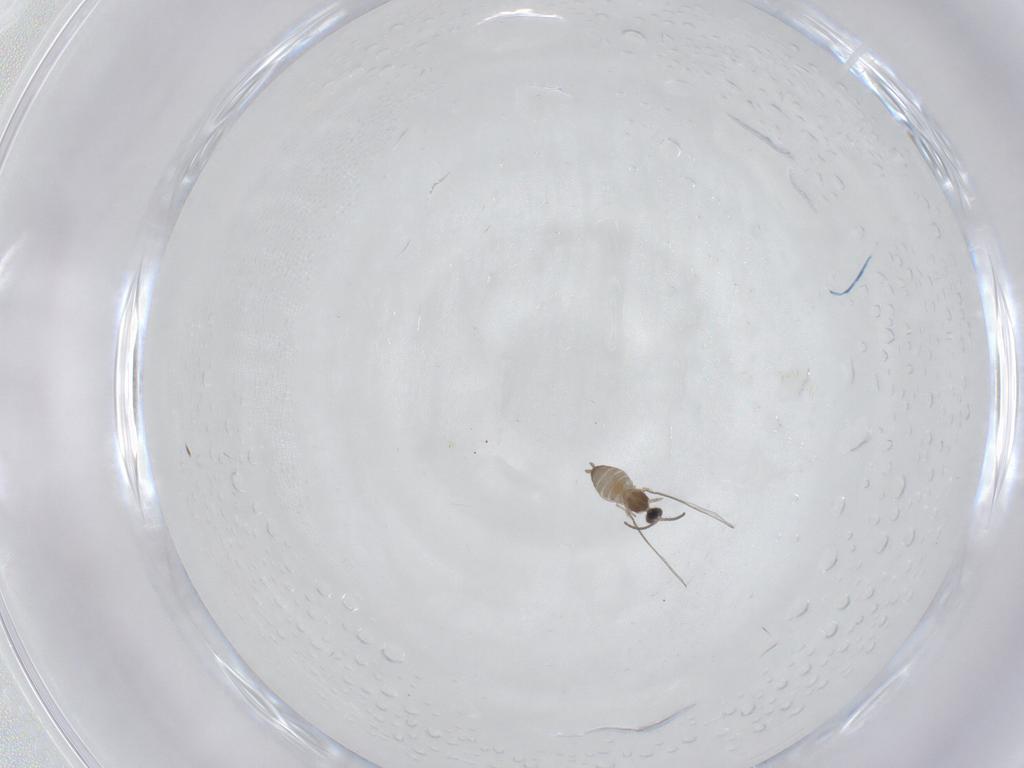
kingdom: Animalia
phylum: Arthropoda
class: Insecta
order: Diptera
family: Cecidomyiidae
